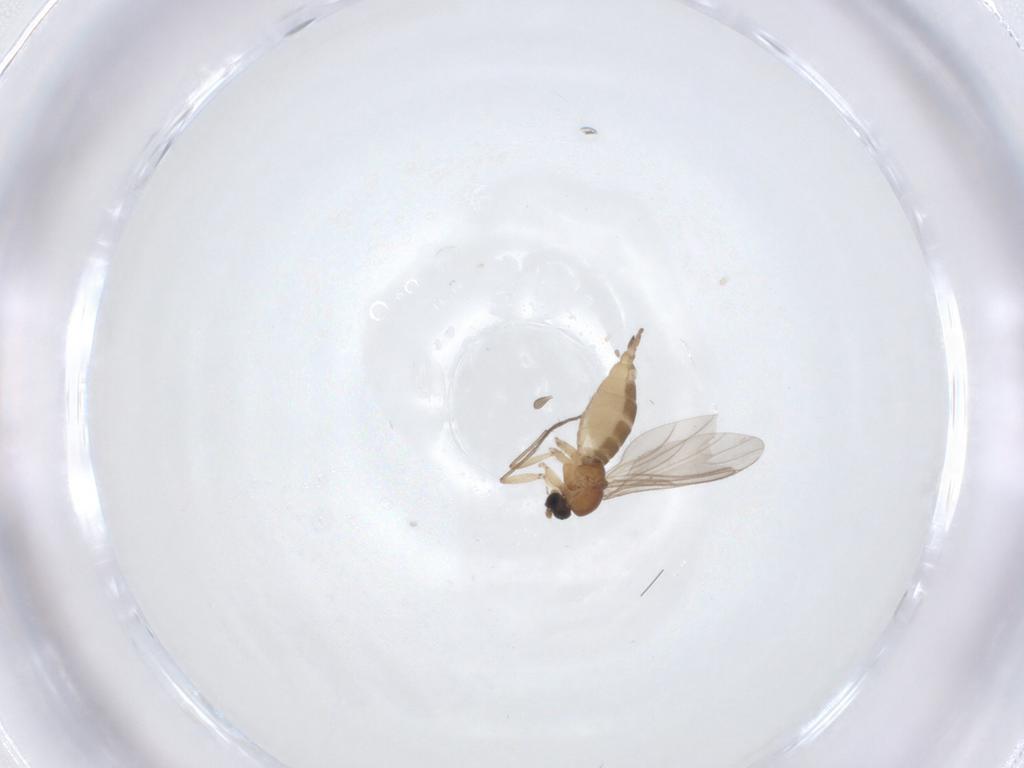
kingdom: Animalia
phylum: Arthropoda
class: Insecta
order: Diptera
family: Sciaridae
